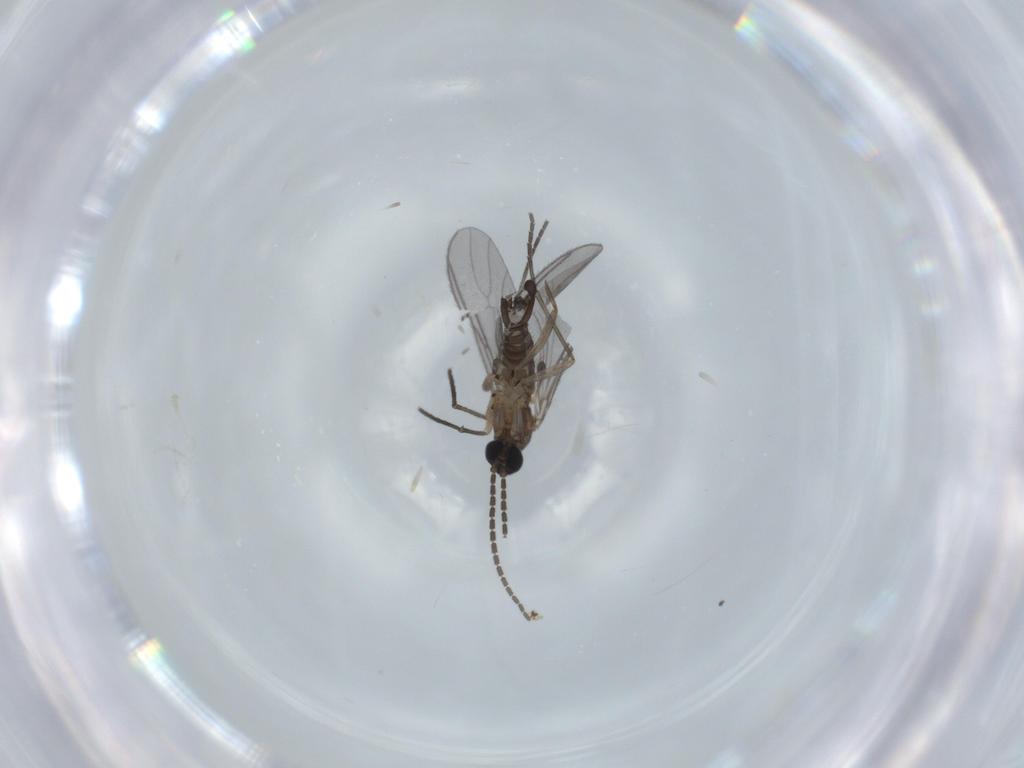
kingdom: Animalia
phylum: Arthropoda
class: Insecta
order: Diptera
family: Sciaridae
